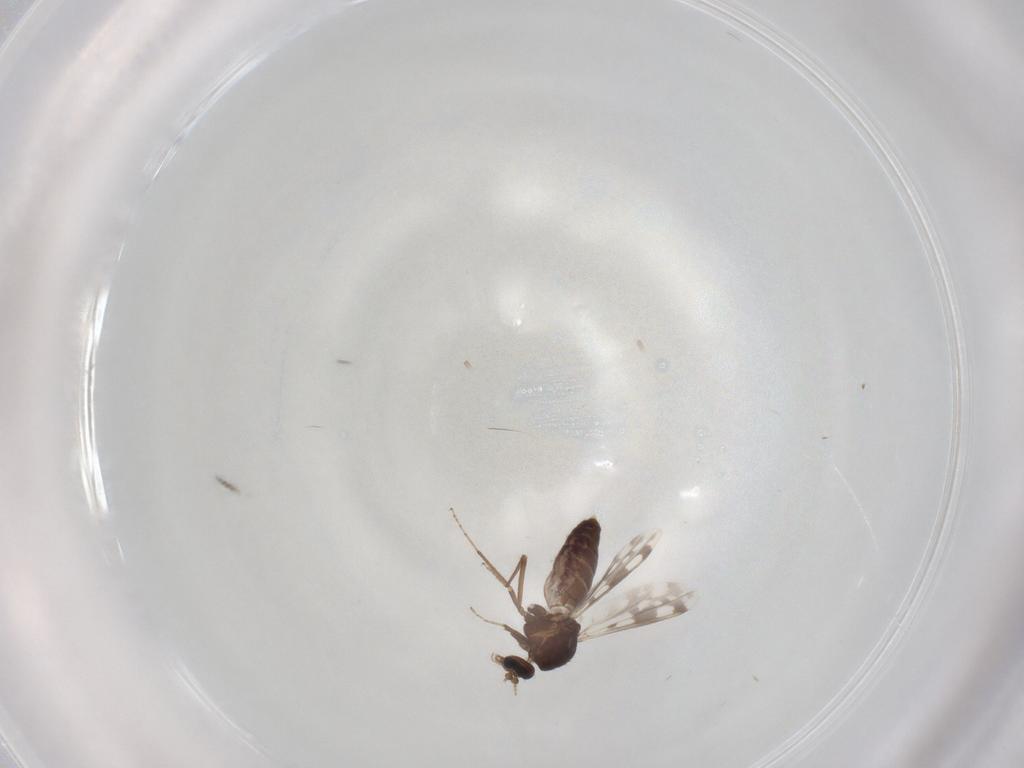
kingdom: Animalia
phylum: Arthropoda
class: Insecta
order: Diptera
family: Ceratopogonidae
